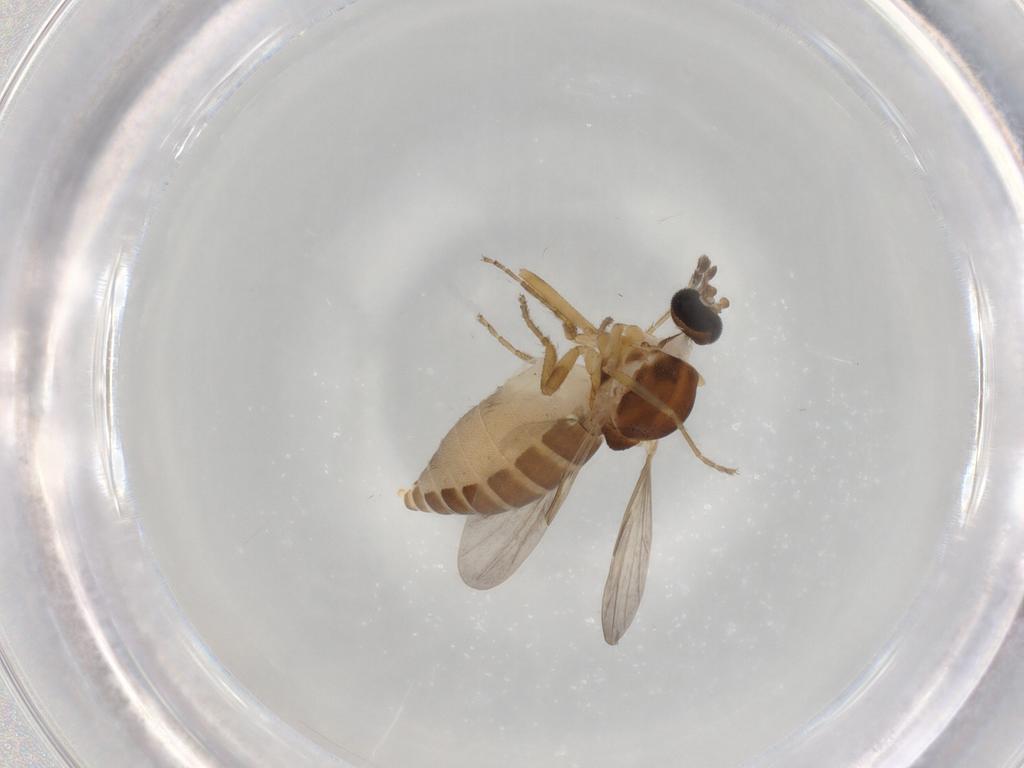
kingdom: Animalia
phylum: Arthropoda
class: Insecta
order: Diptera
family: Ceratopogonidae
